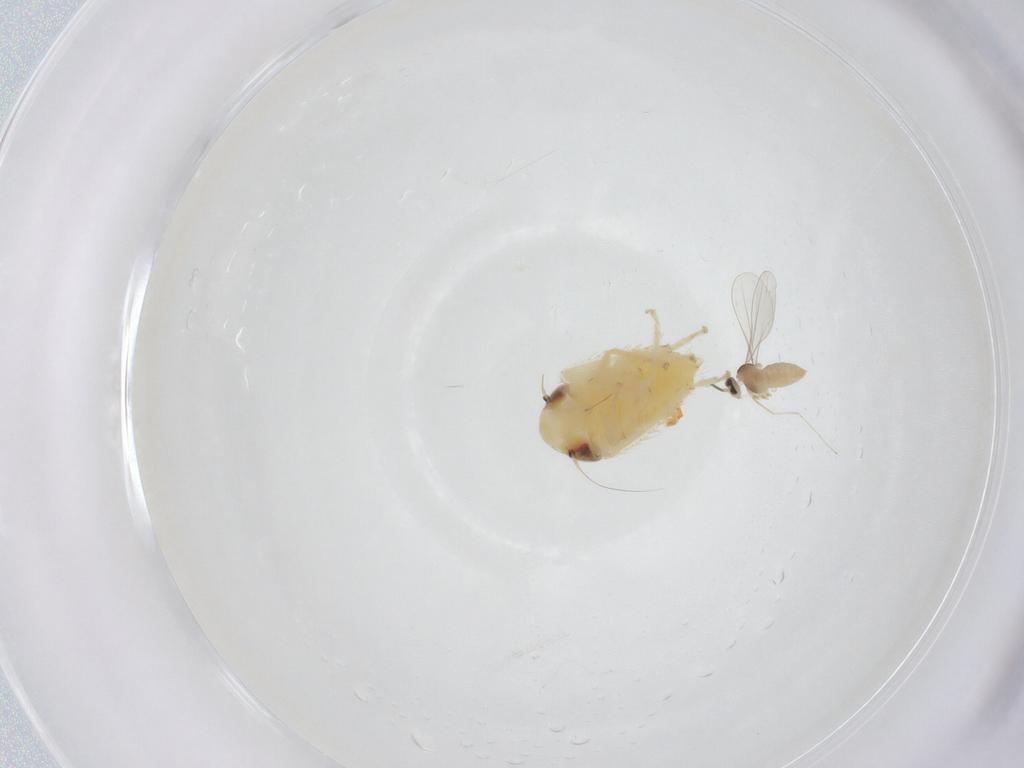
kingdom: Animalia
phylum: Arthropoda
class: Insecta
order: Diptera
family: Cecidomyiidae
